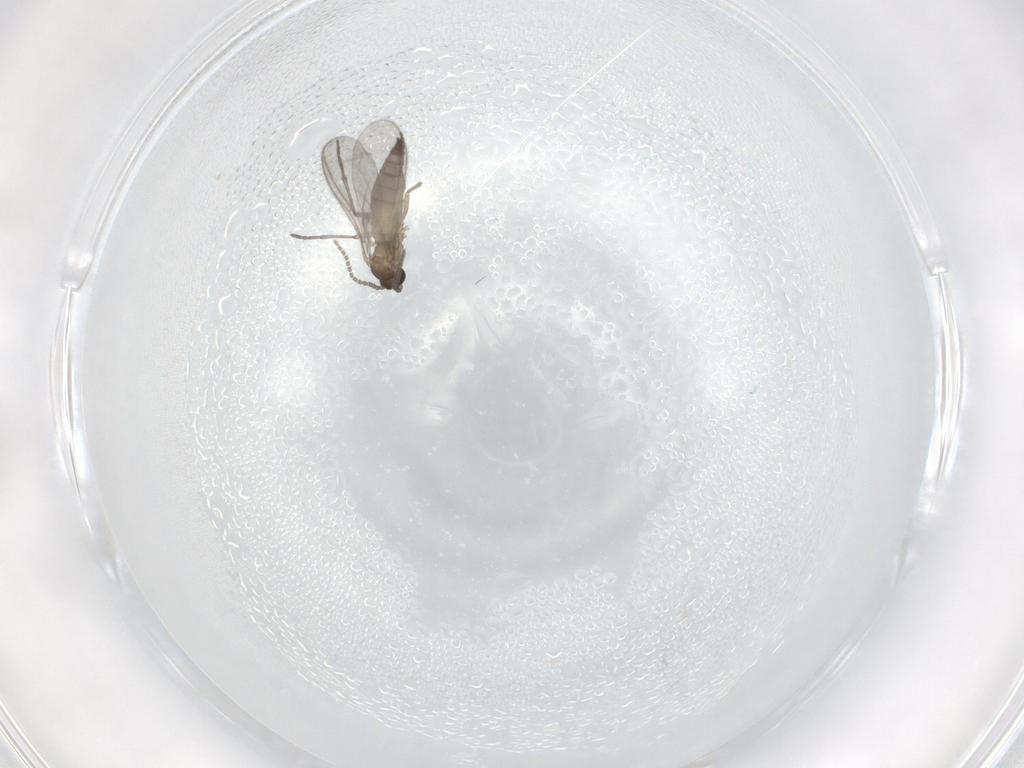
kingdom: Animalia
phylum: Arthropoda
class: Insecta
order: Diptera
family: Sciaridae
